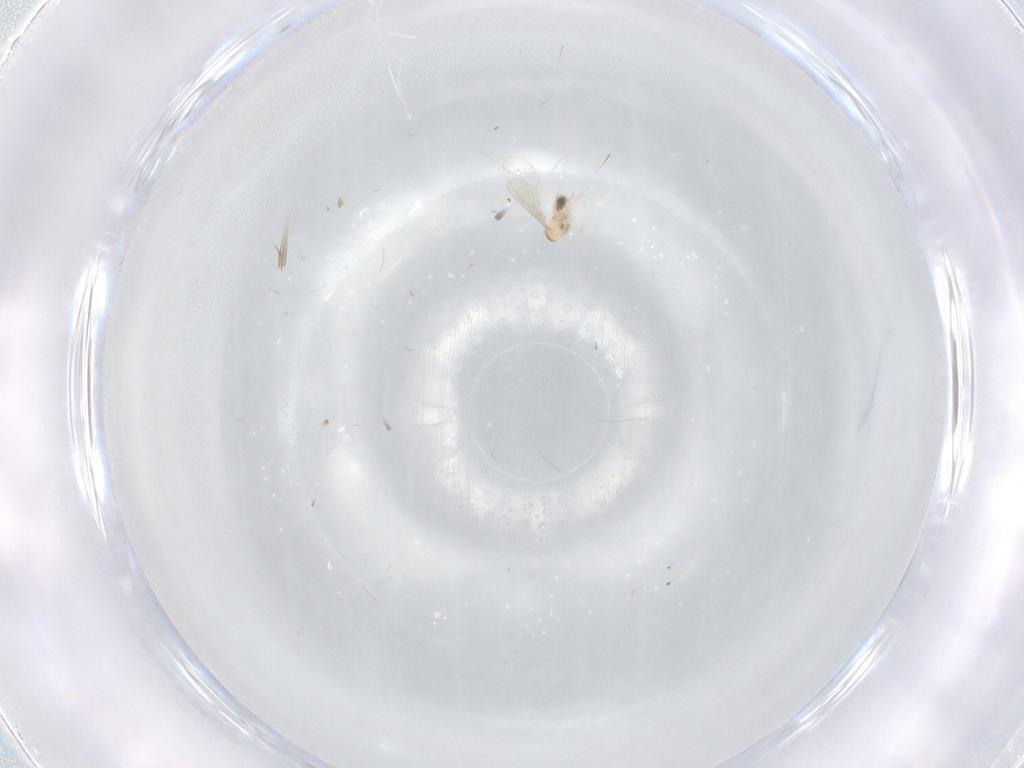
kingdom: Animalia
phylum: Arthropoda
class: Insecta
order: Diptera
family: Cecidomyiidae
